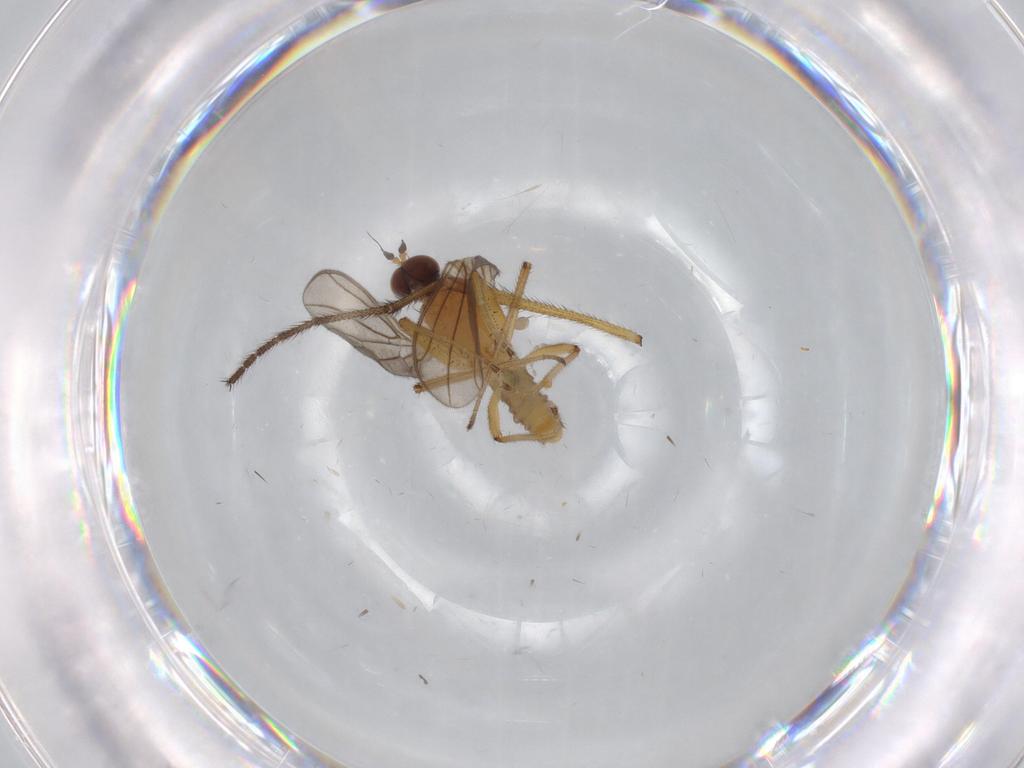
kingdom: Animalia
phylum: Arthropoda
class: Insecta
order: Diptera
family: Empididae
